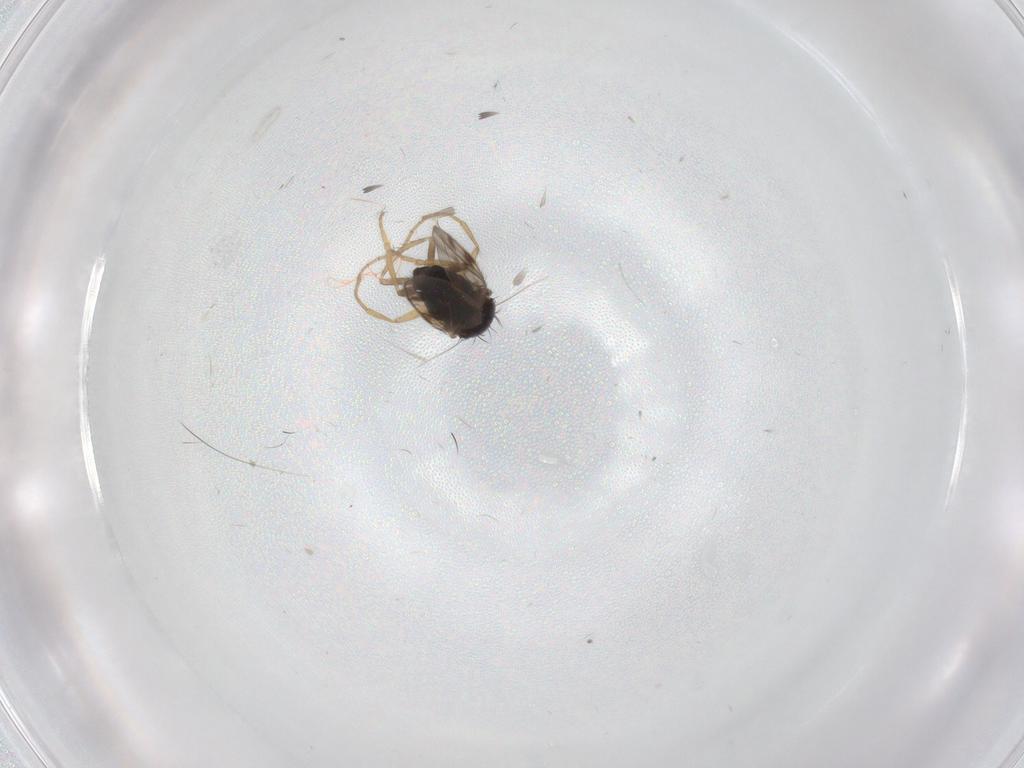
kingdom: Animalia
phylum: Arthropoda
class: Insecta
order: Diptera
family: Sphaeroceridae
